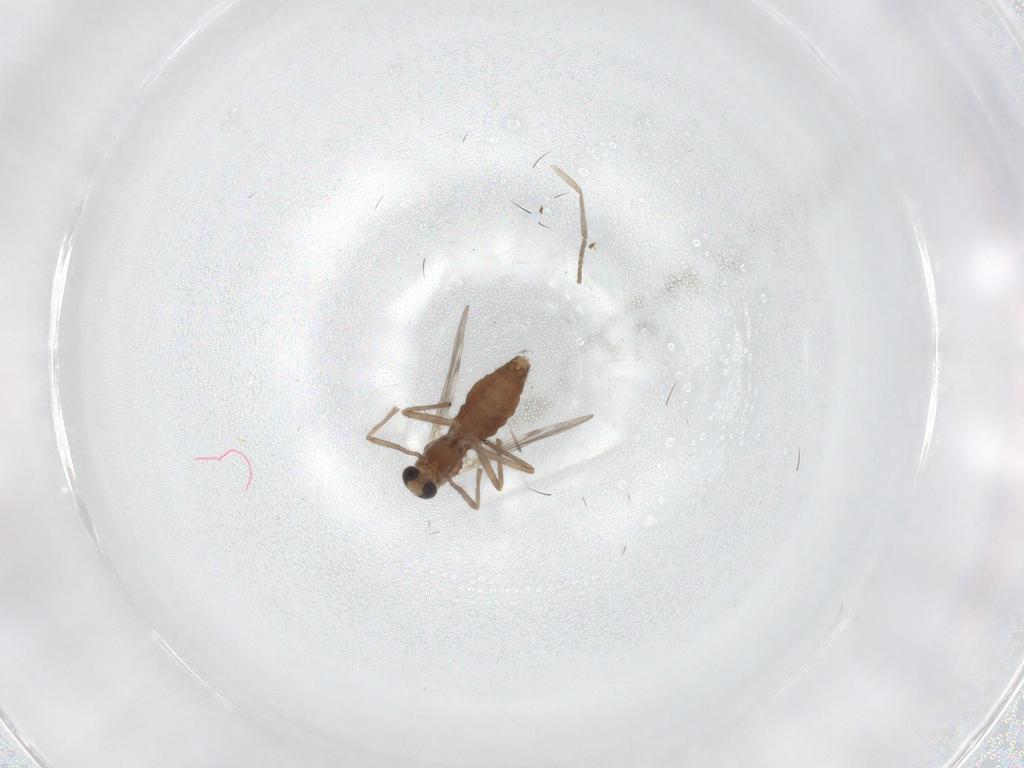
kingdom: Animalia
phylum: Arthropoda
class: Insecta
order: Diptera
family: Chironomidae
